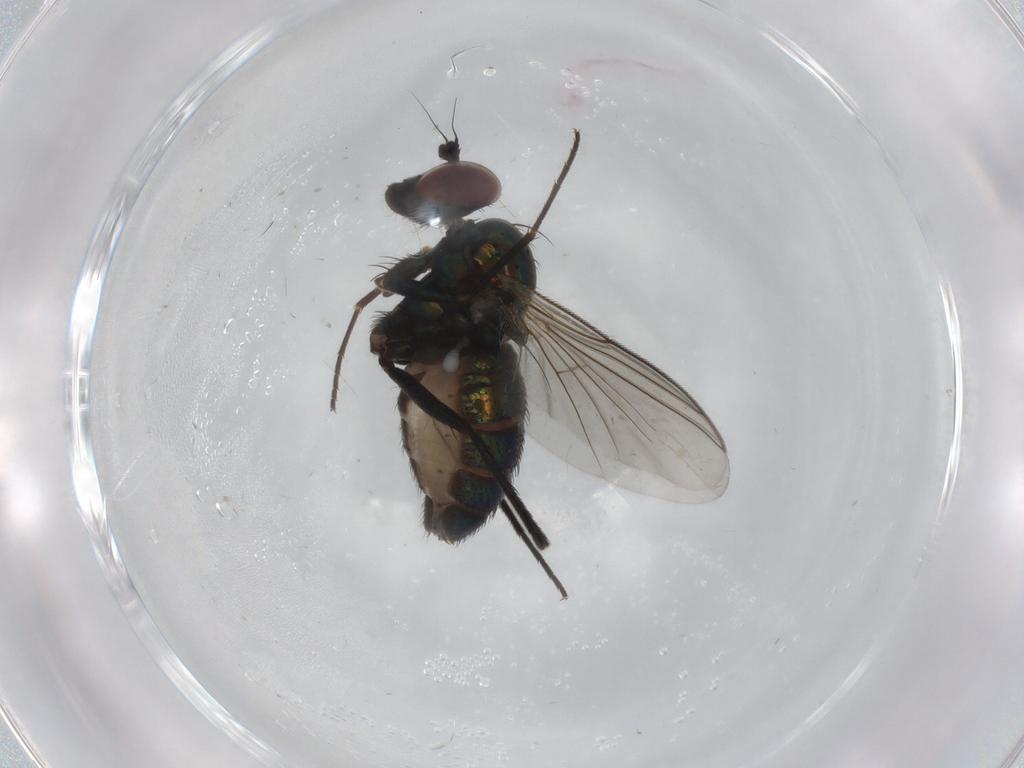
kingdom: Animalia
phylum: Arthropoda
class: Insecta
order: Diptera
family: Dolichopodidae
